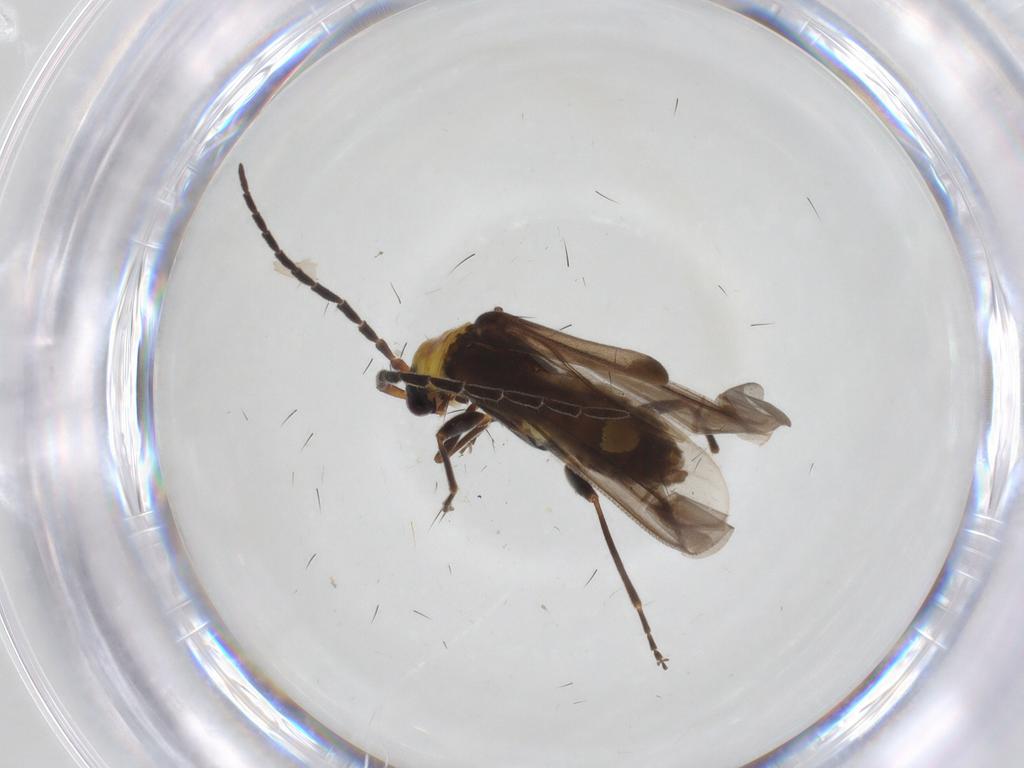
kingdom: Animalia
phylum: Arthropoda
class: Insecta
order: Coleoptera
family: Cantharidae
